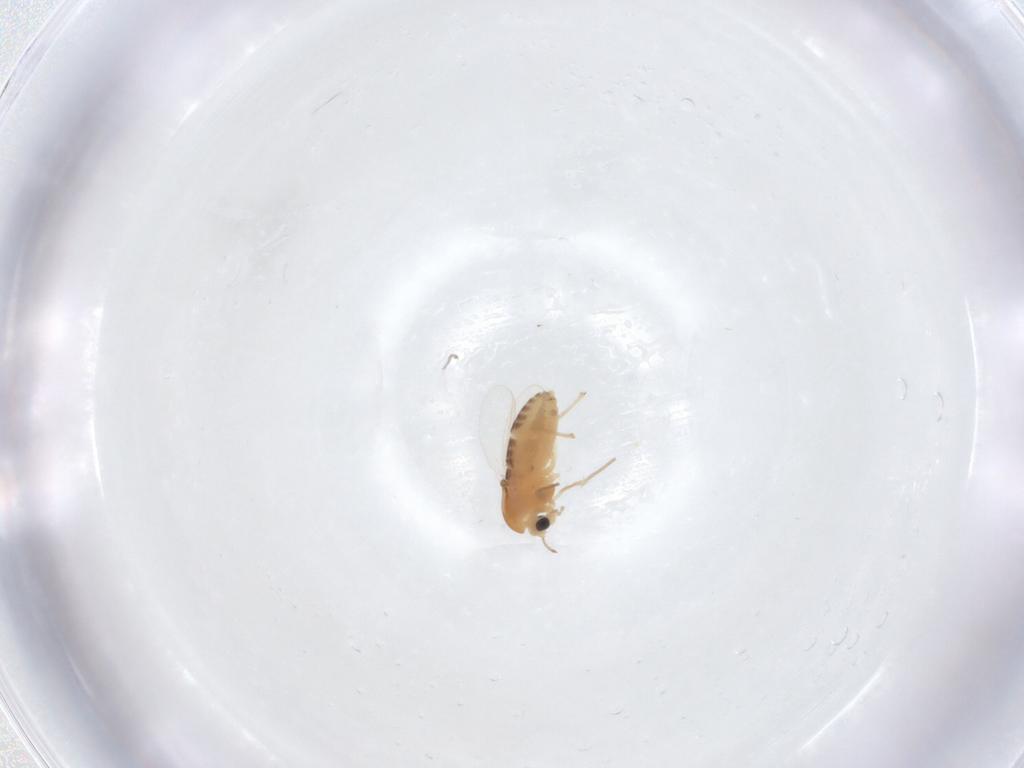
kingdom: Animalia
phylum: Arthropoda
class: Insecta
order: Diptera
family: Chironomidae
